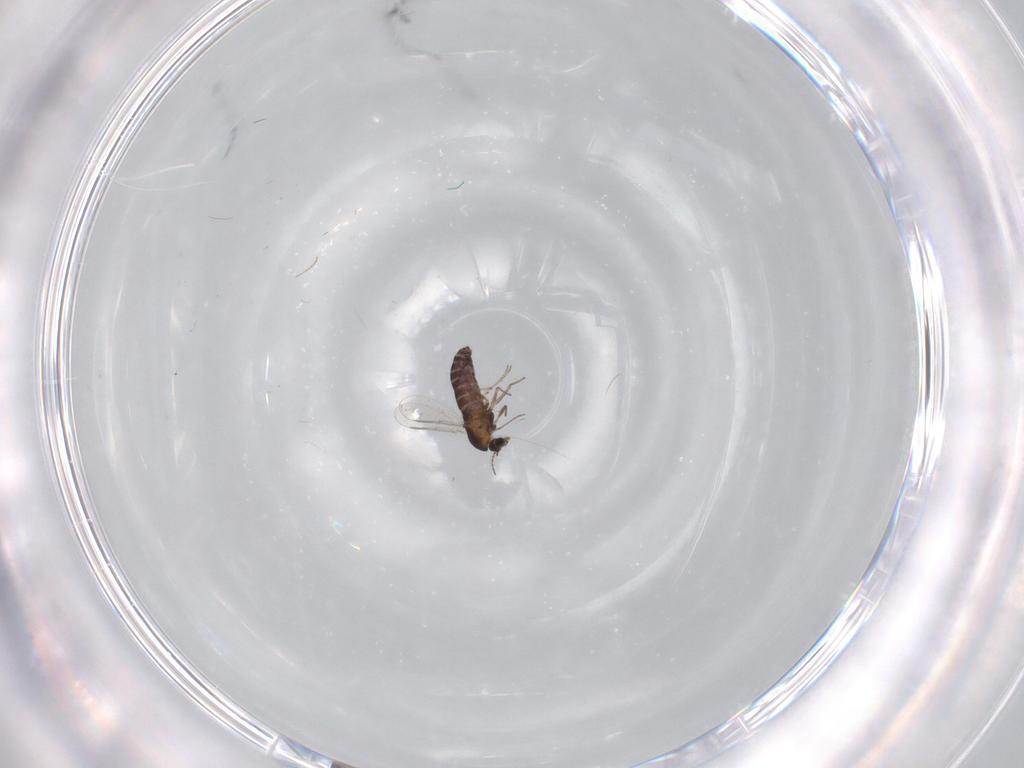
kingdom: Animalia
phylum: Arthropoda
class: Insecta
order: Diptera
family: Chironomidae
